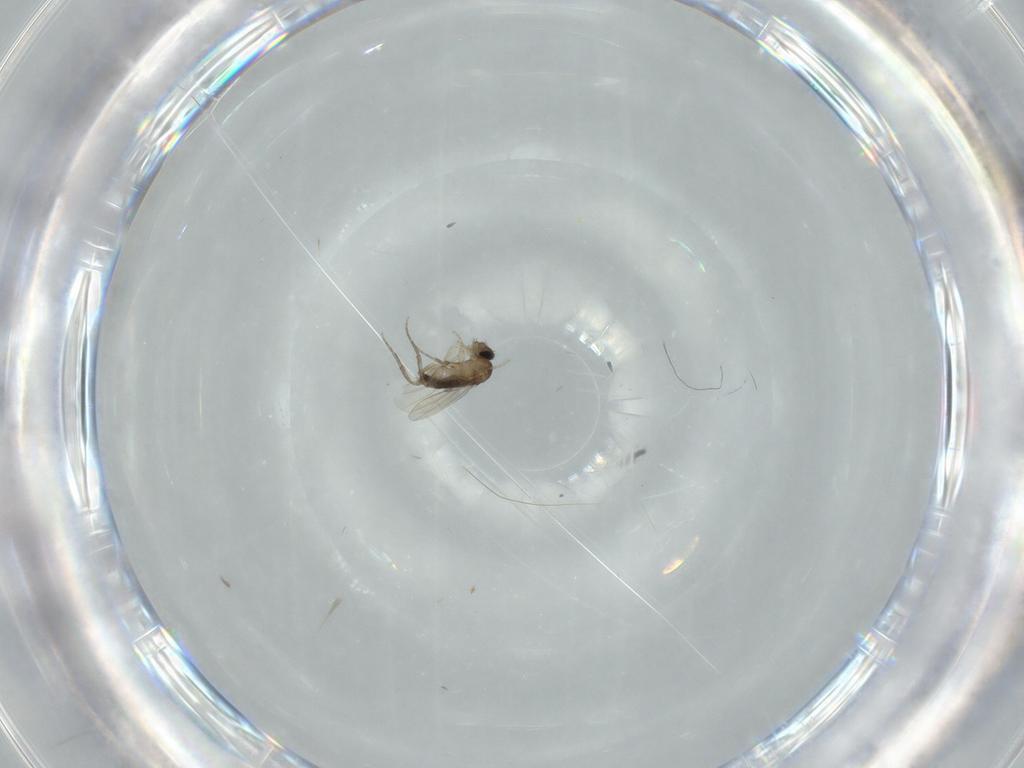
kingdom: Animalia
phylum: Arthropoda
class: Insecta
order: Diptera
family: Phoridae
